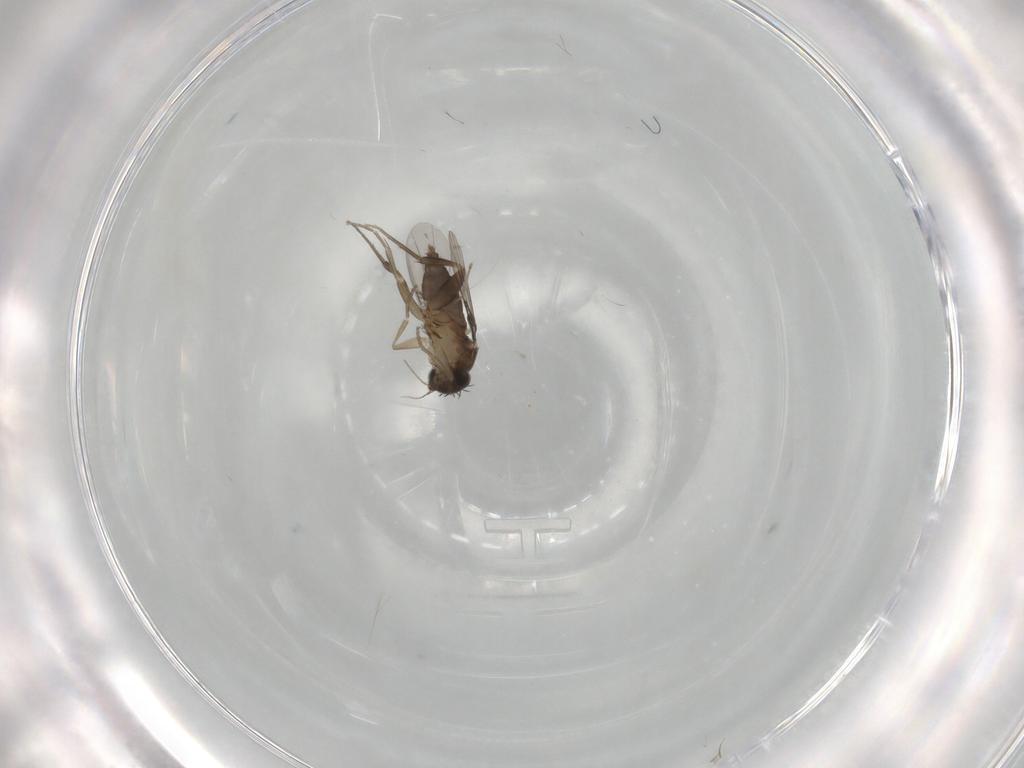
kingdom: Animalia
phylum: Arthropoda
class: Insecta
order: Diptera
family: Phoridae
